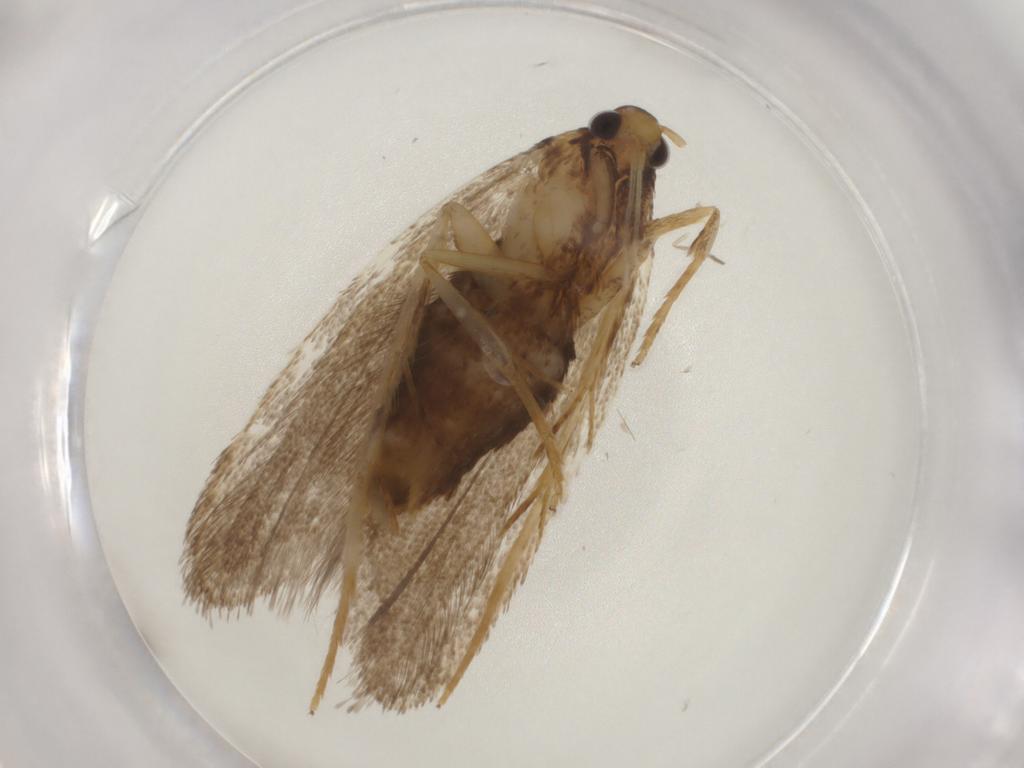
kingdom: Animalia
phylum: Arthropoda
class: Insecta
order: Lepidoptera
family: Lecithoceridae
